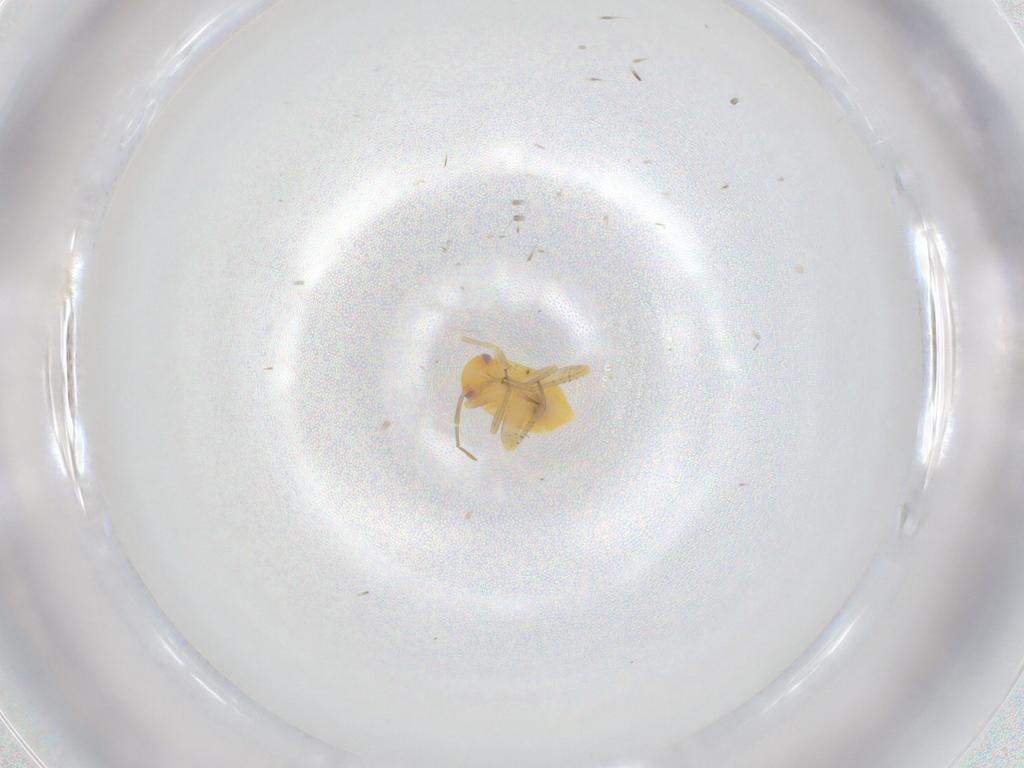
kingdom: Animalia
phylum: Arthropoda
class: Insecta
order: Hemiptera
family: Miridae
